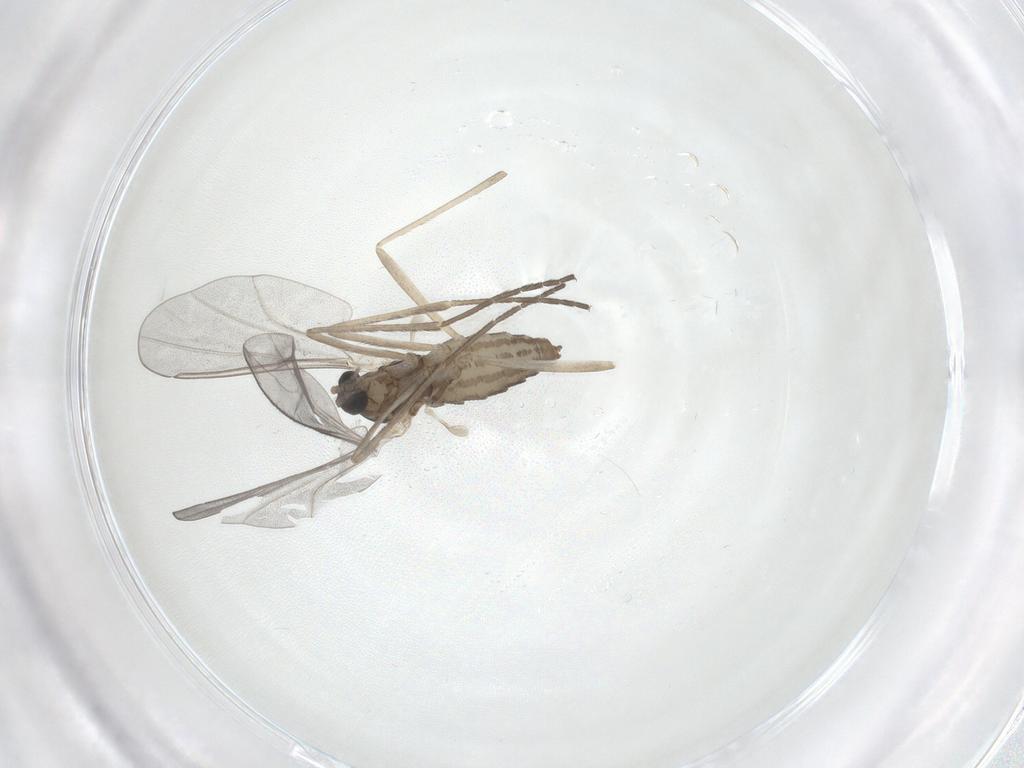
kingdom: Animalia
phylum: Arthropoda
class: Insecta
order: Diptera
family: Cecidomyiidae
